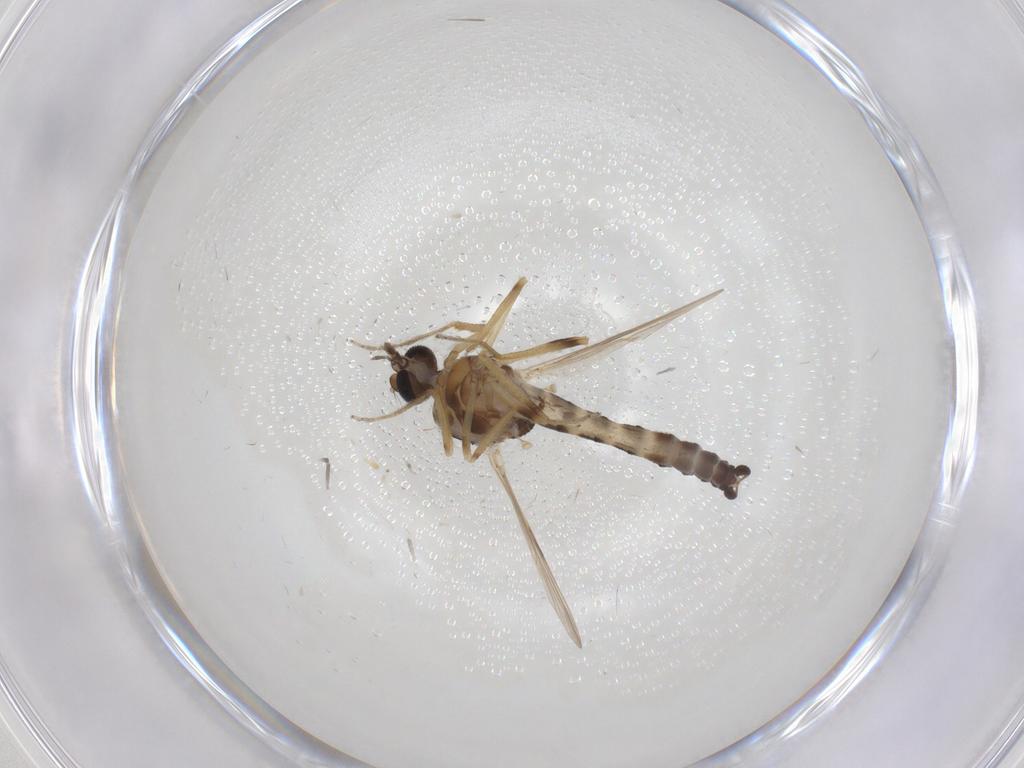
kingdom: Animalia
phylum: Arthropoda
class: Insecta
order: Diptera
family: Ceratopogonidae
